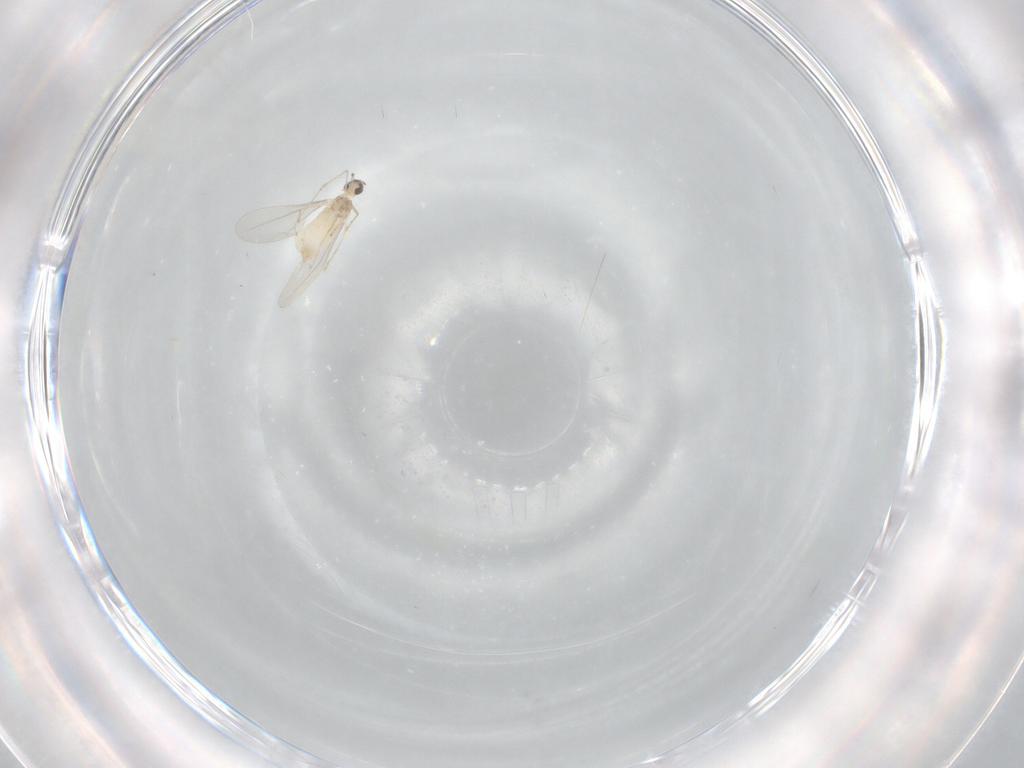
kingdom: Animalia
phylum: Arthropoda
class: Insecta
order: Diptera
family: Cecidomyiidae
